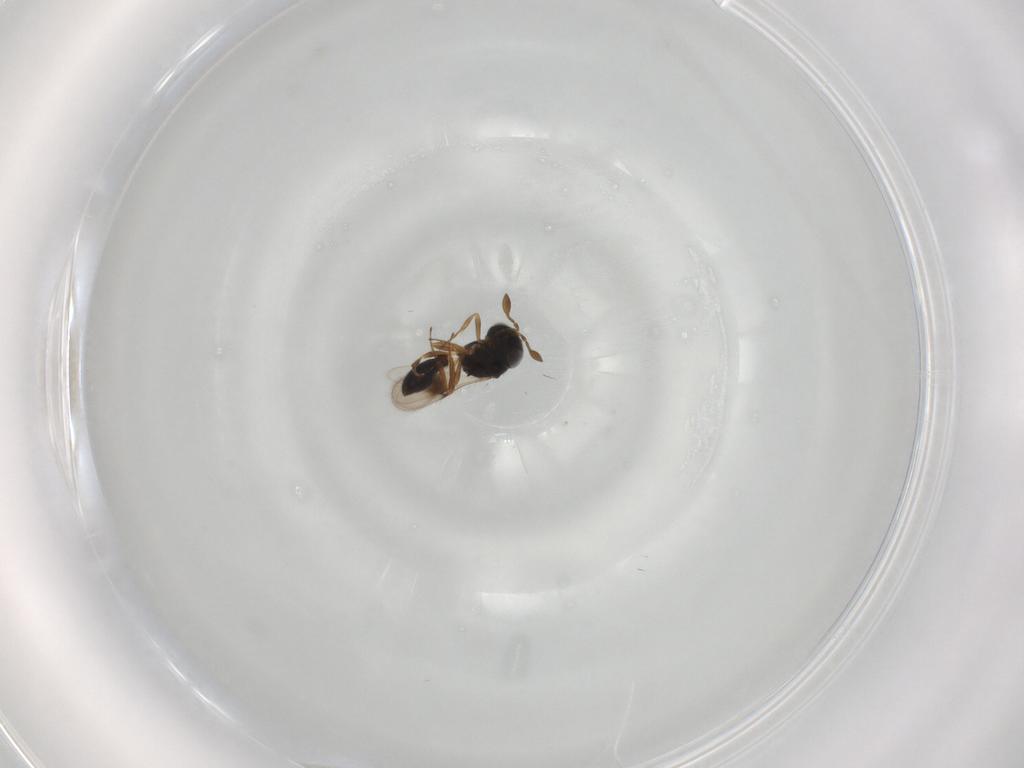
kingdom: Animalia
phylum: Arthropoda
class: Insecta
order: Hymenoptera
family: Scelionidae
